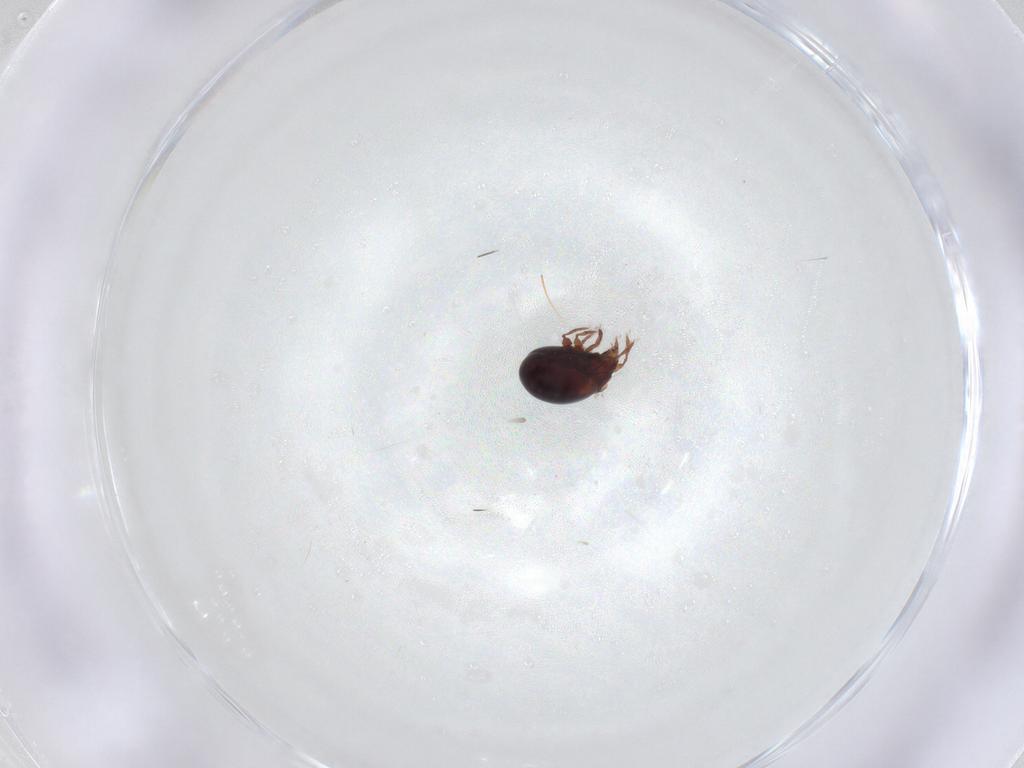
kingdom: Animalia
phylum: Arthropoda
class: Arachnida
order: Sarcoptiformes
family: Humerobatidae
